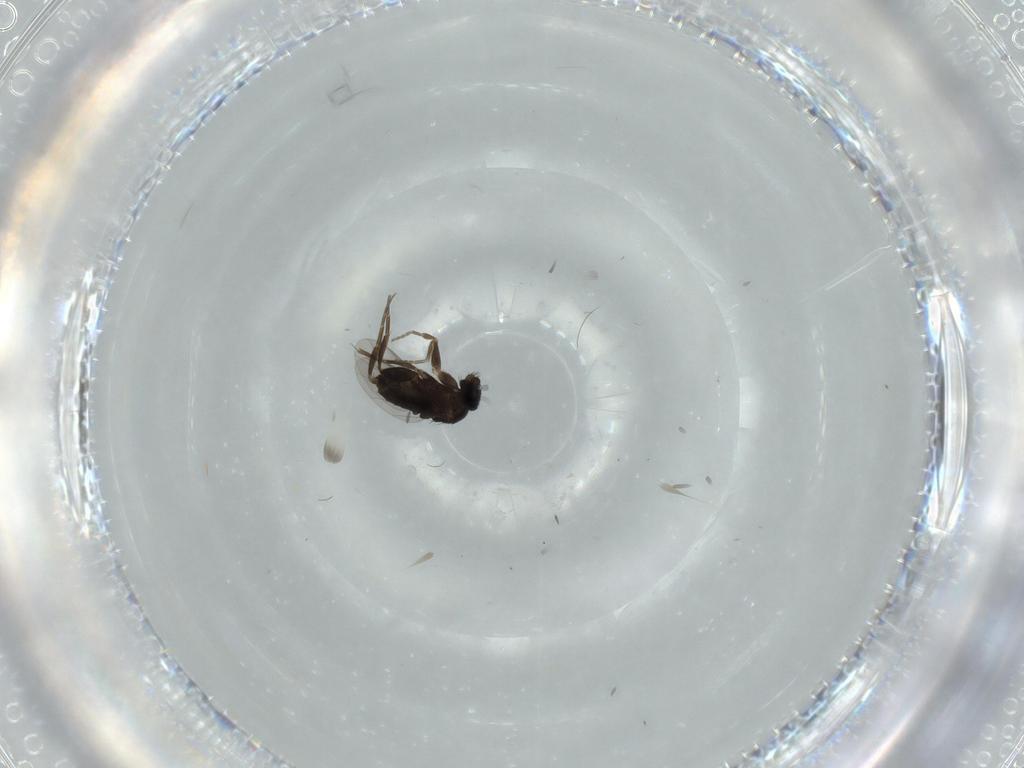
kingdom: Animalia
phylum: Arthropoda
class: Insecta
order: Diptera
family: Phoridae
